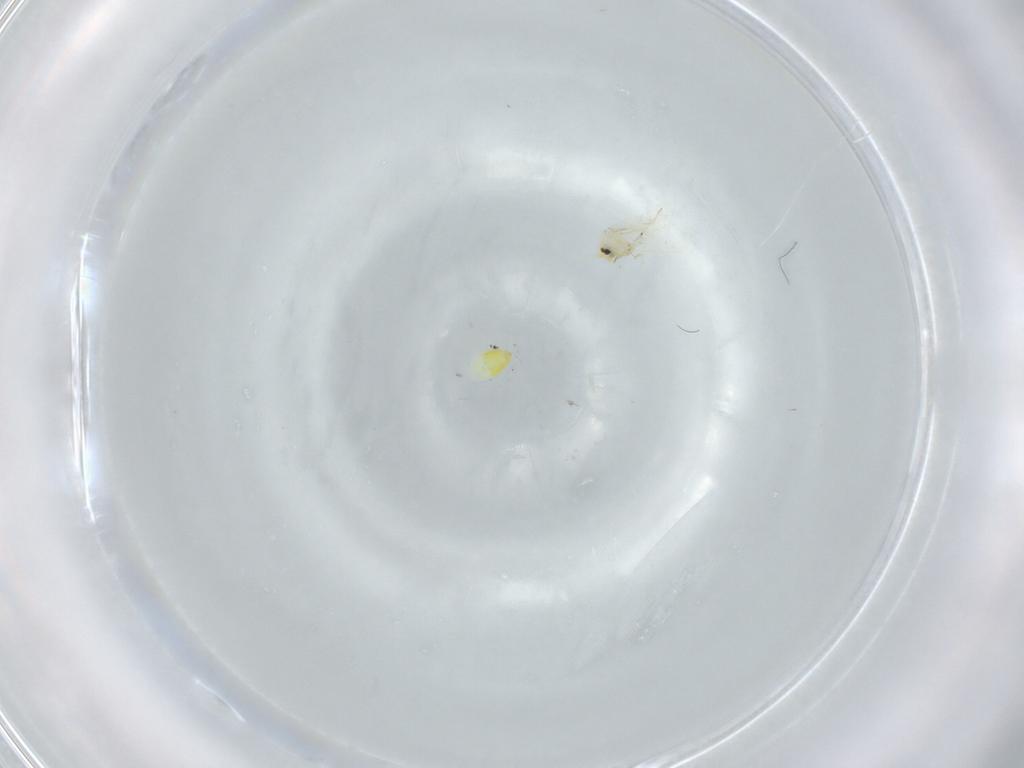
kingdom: Animalia
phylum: Arthropoda
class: Insecta
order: Hemiptera
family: Aleyrodidae
